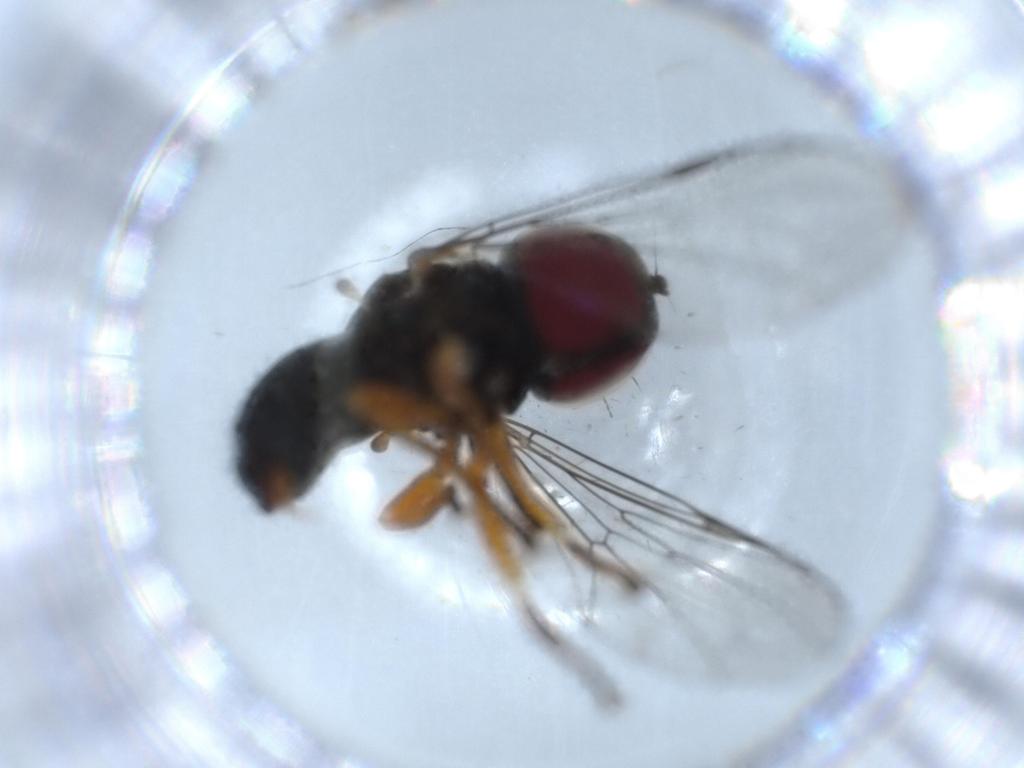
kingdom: Animalia
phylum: Arthropoda
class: Insecta
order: Diptera
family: Pipunculidae
